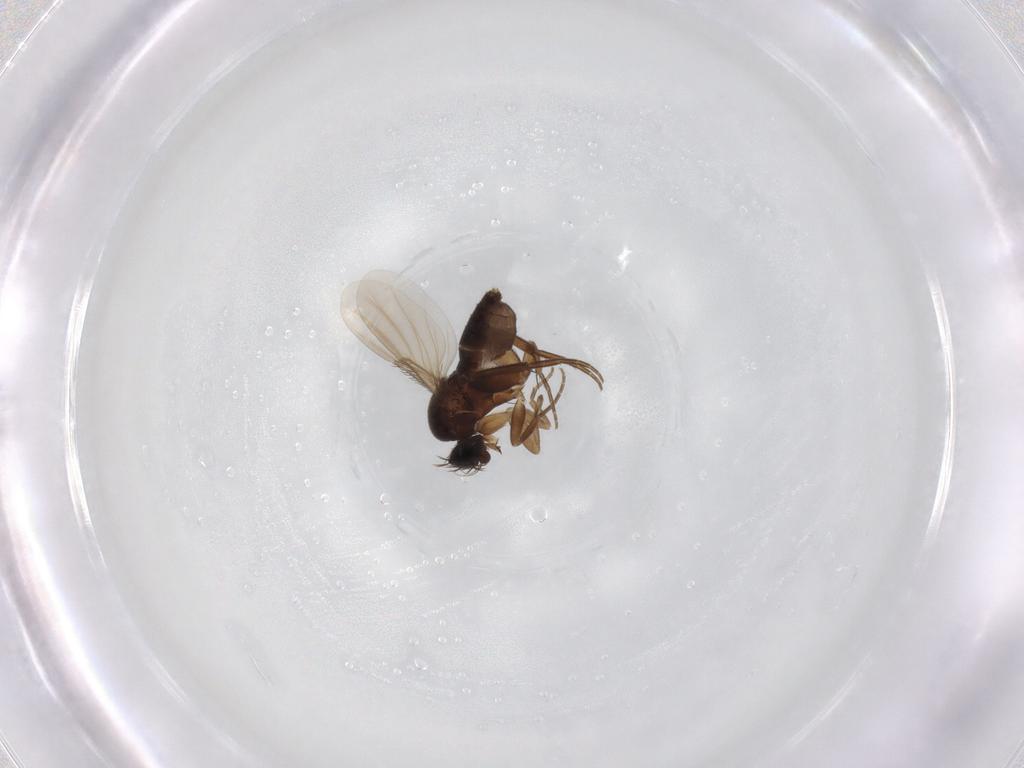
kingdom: Animalia
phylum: Arthropoda
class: Insecta
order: Diptera
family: Phoridae
